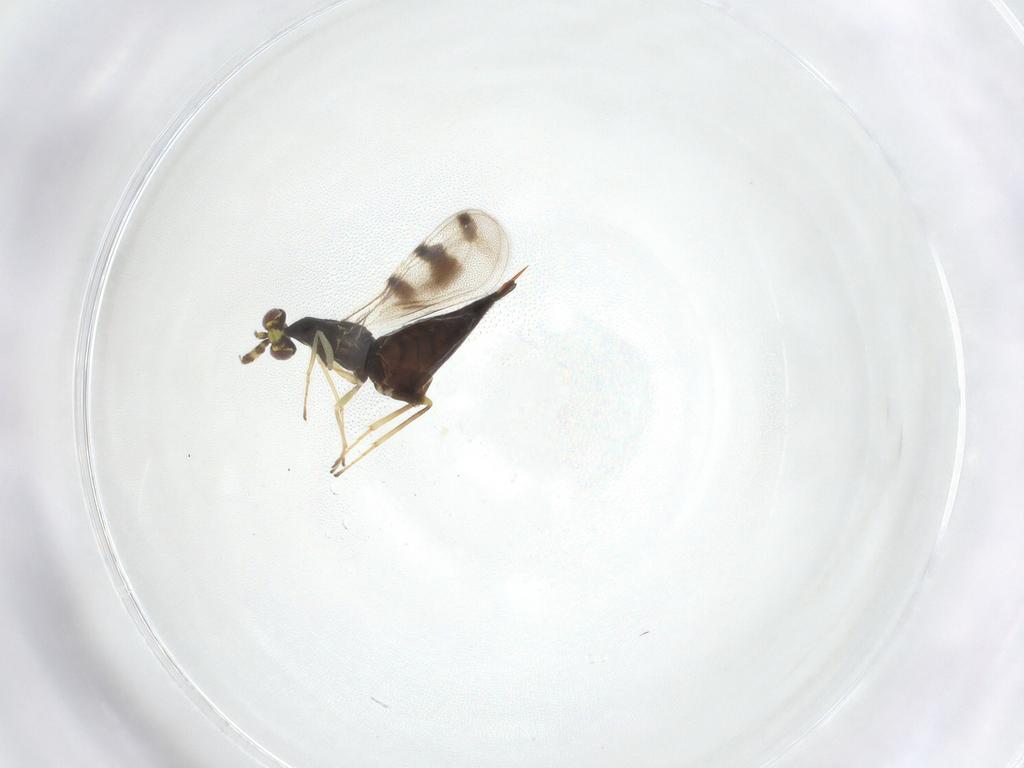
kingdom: Animalia
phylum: Arthropoda
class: Insecta
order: Hymenoptera
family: Eulophidae
